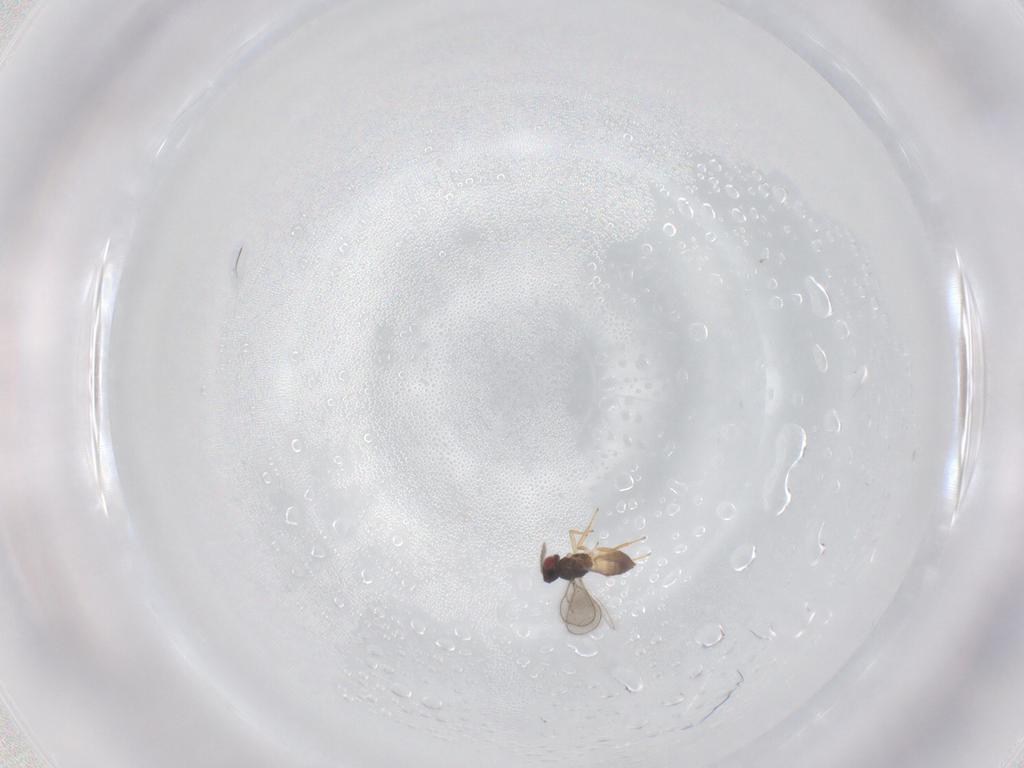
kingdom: Animalia
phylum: Arthropoda
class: Insecta
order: Hymenoptera
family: Eulophidae
